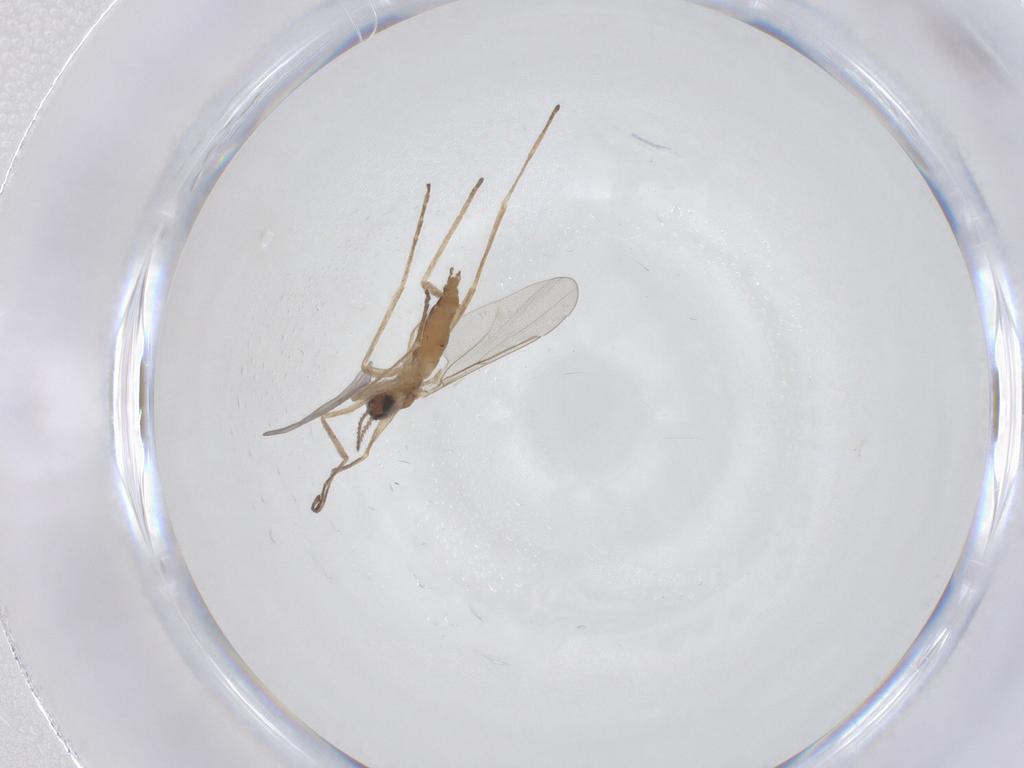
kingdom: Animalia
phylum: Arthropoda
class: Insecta
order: Diptera
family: Cecidomyiidae
